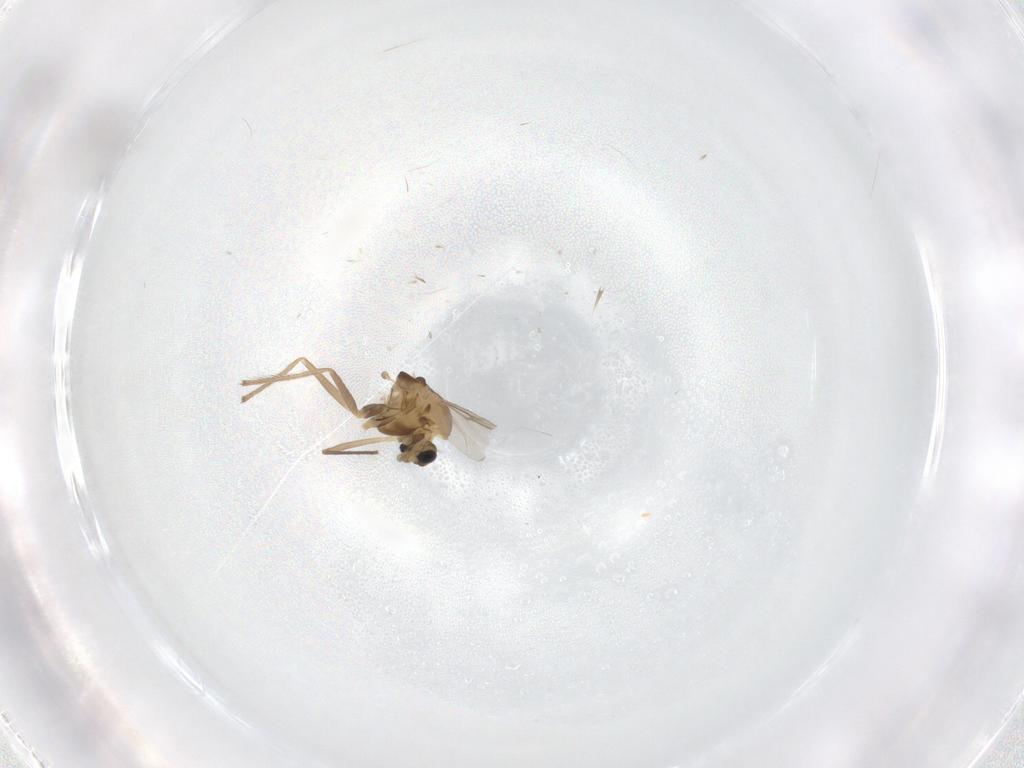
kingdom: Animalia
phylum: Arthropoda
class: Insecta
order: Diptera
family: Chironomidae
